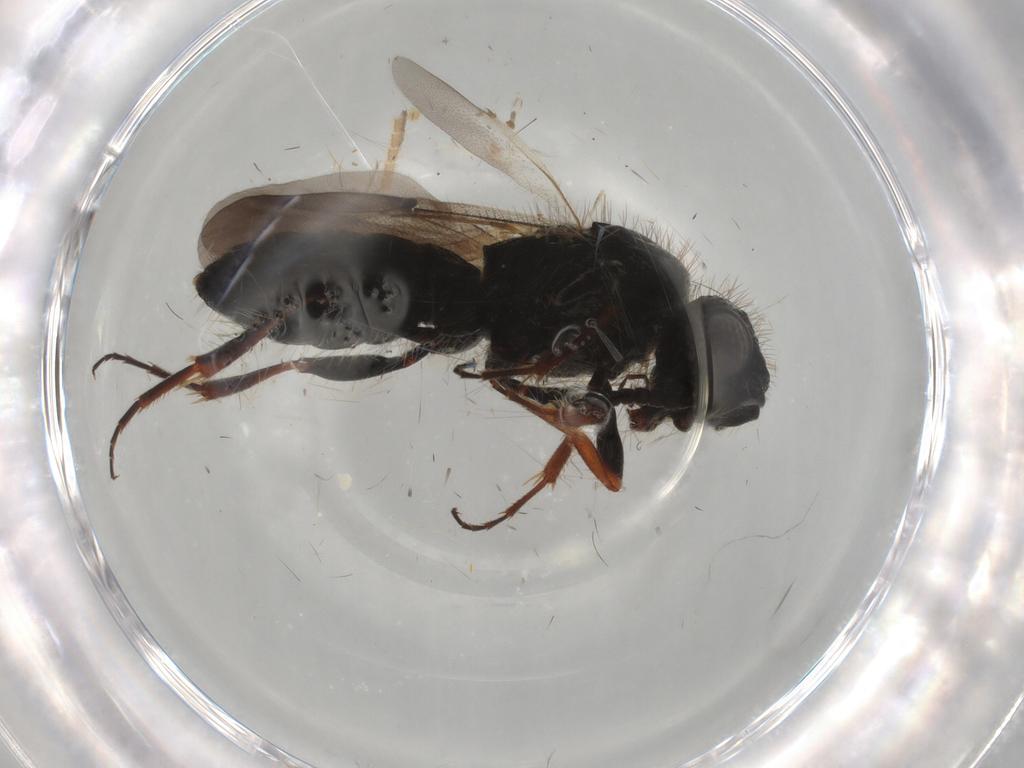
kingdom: Animalia
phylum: Arthropoda
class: Insecta
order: Hymenoptera
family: Scelionidae
